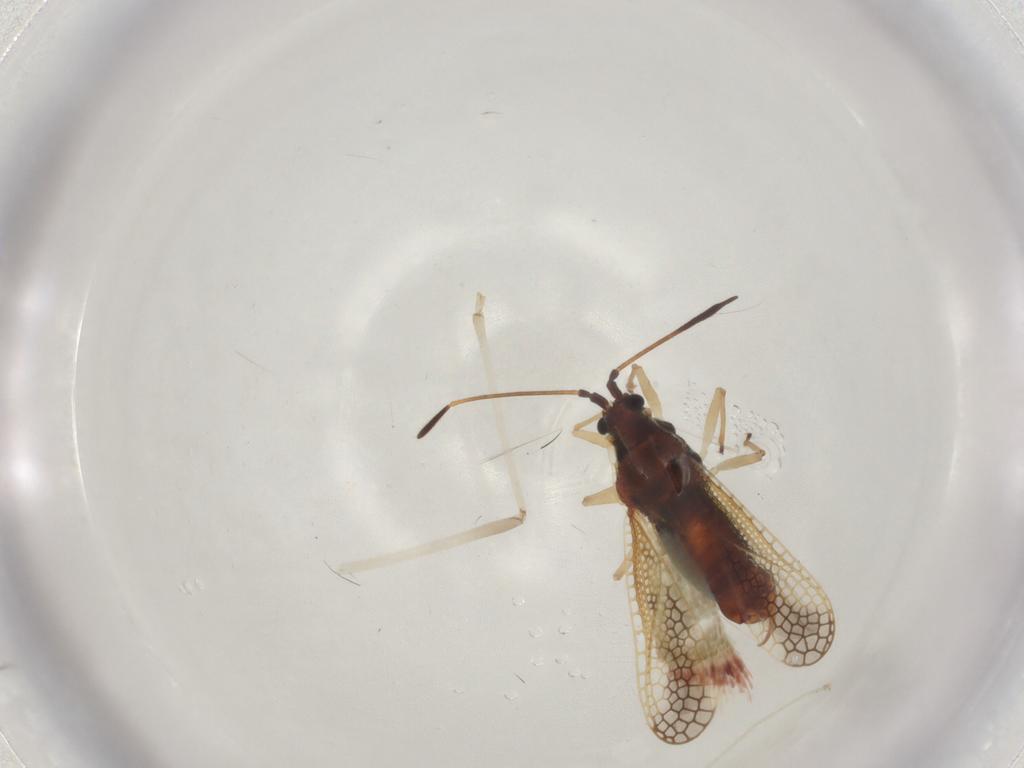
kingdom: Animalia
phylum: Arthropoda
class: Insecta
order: Hemiptera
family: Tingidae
